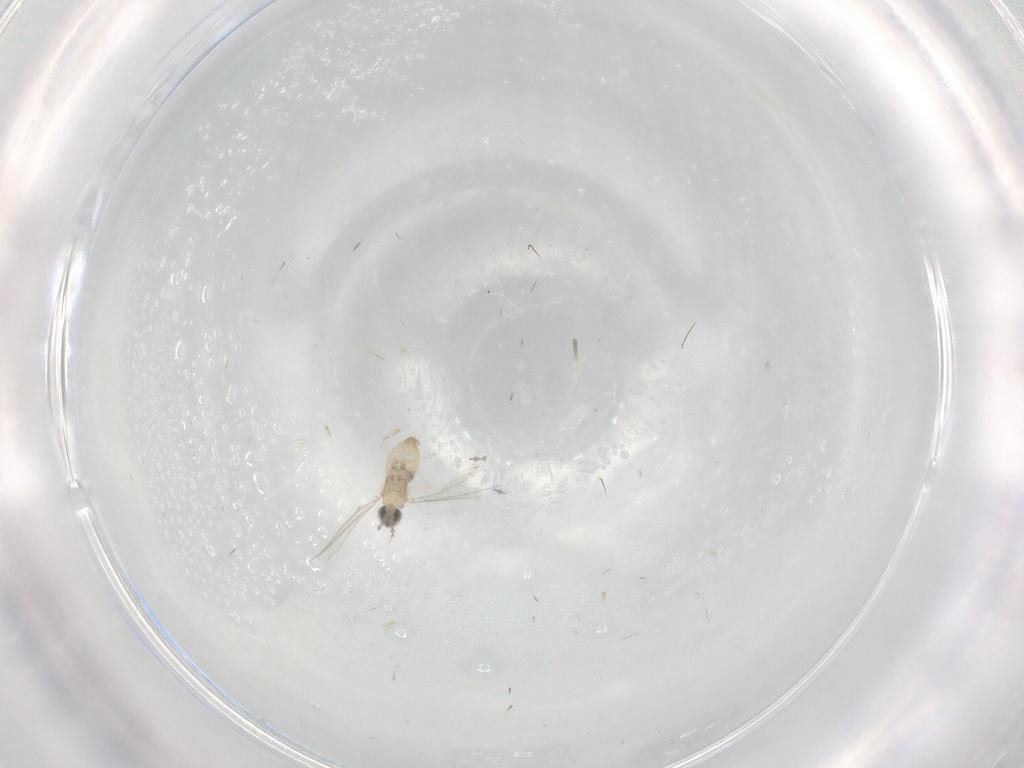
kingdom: Animalia
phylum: Arthropoda
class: Insecta
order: Diptera
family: Cecidomyiidae
